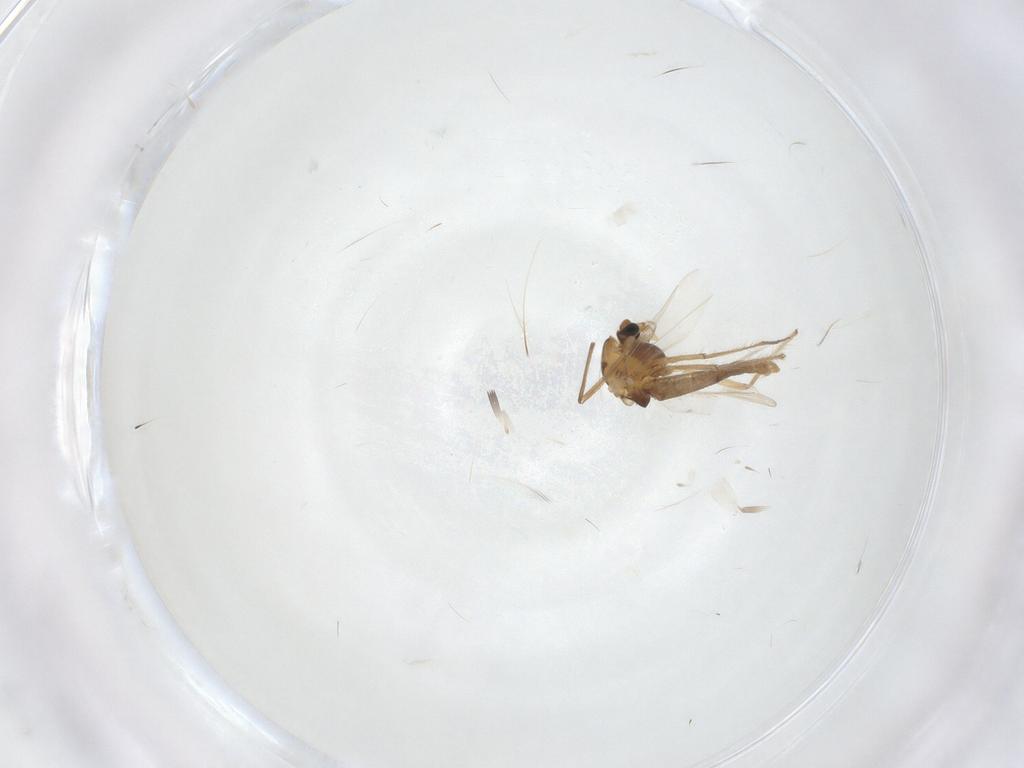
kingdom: Animalia
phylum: Arthropoda
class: Insecta
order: Diptera
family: Chironomidae
